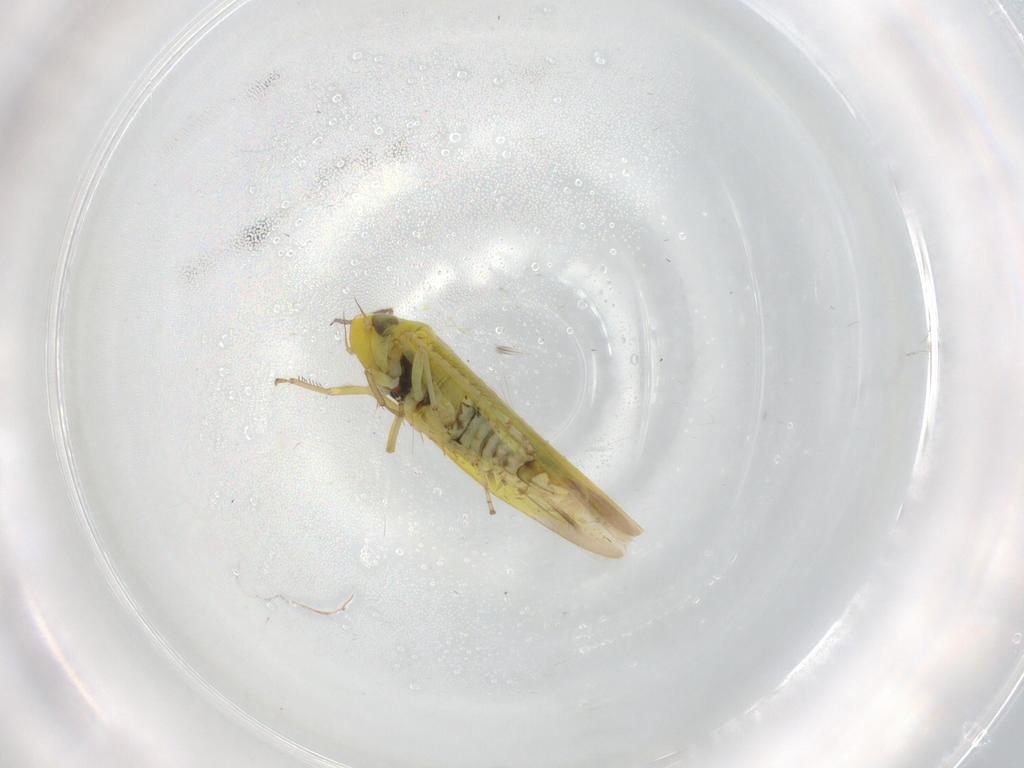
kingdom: Animalia
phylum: Arthropoda
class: Insecta
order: Hemiptera
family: Cicadellidae
